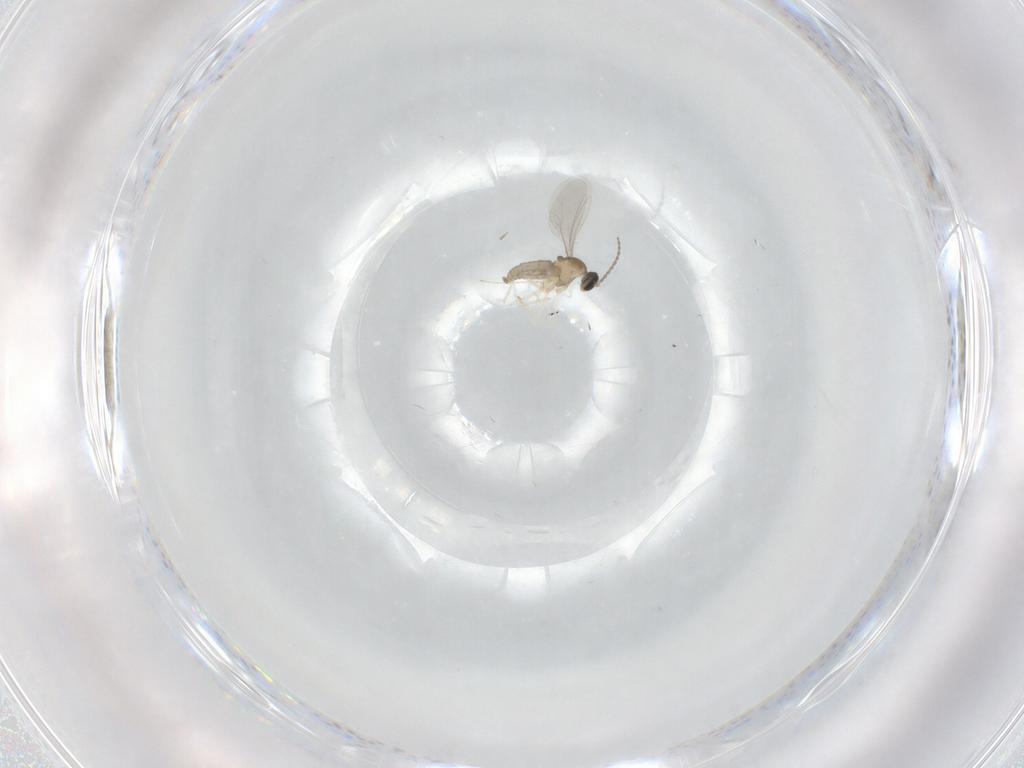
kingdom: Animalia
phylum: Arthropoda
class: Insecta
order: Diptera
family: Cecidomyiidae
